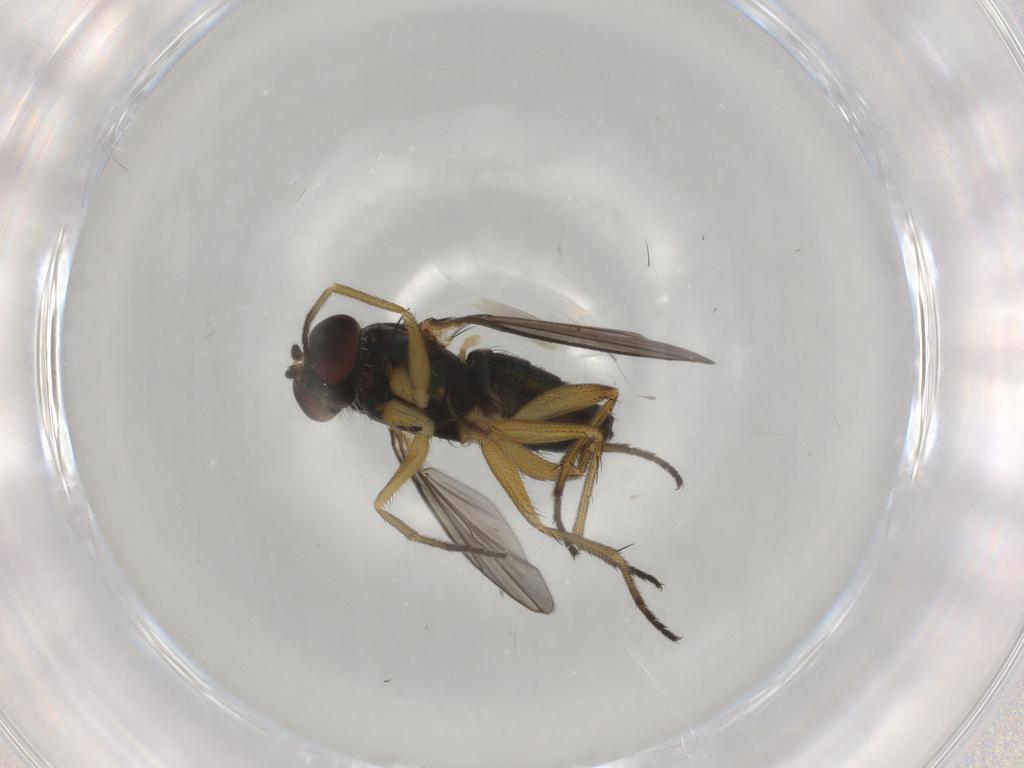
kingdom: Animalia
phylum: Arthropoda
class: Insecta
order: Diptera
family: Dolichopodidae
